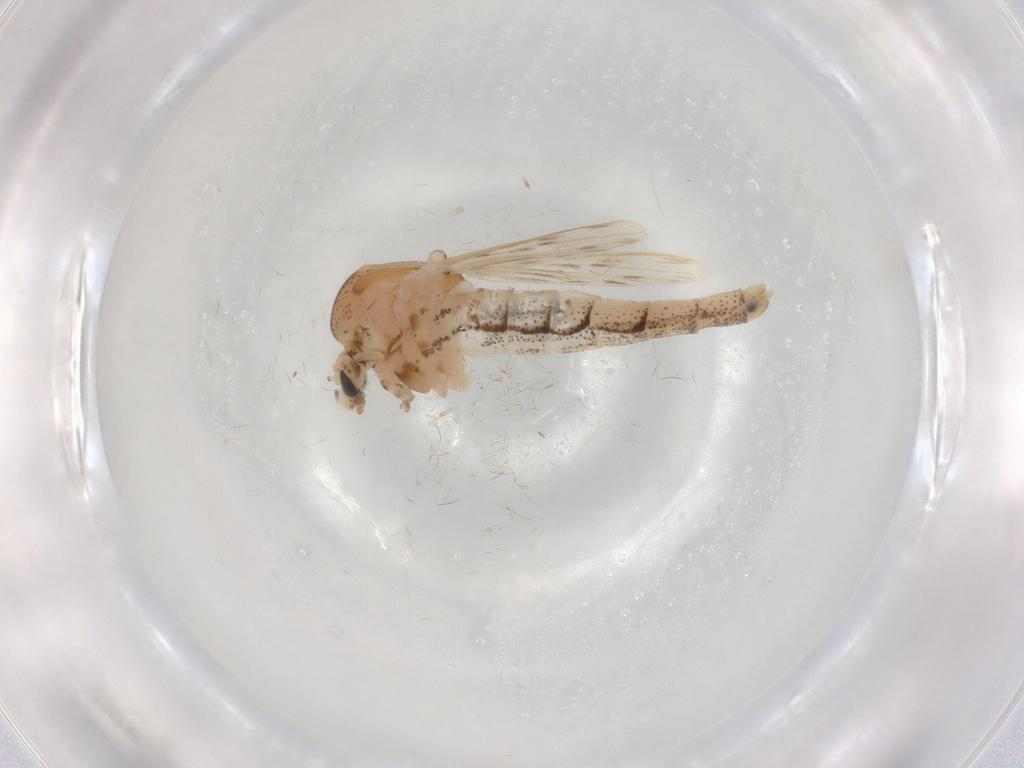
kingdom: Animalia
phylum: Arthropoda
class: Insecta
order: Diptera
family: Chaoboridae
